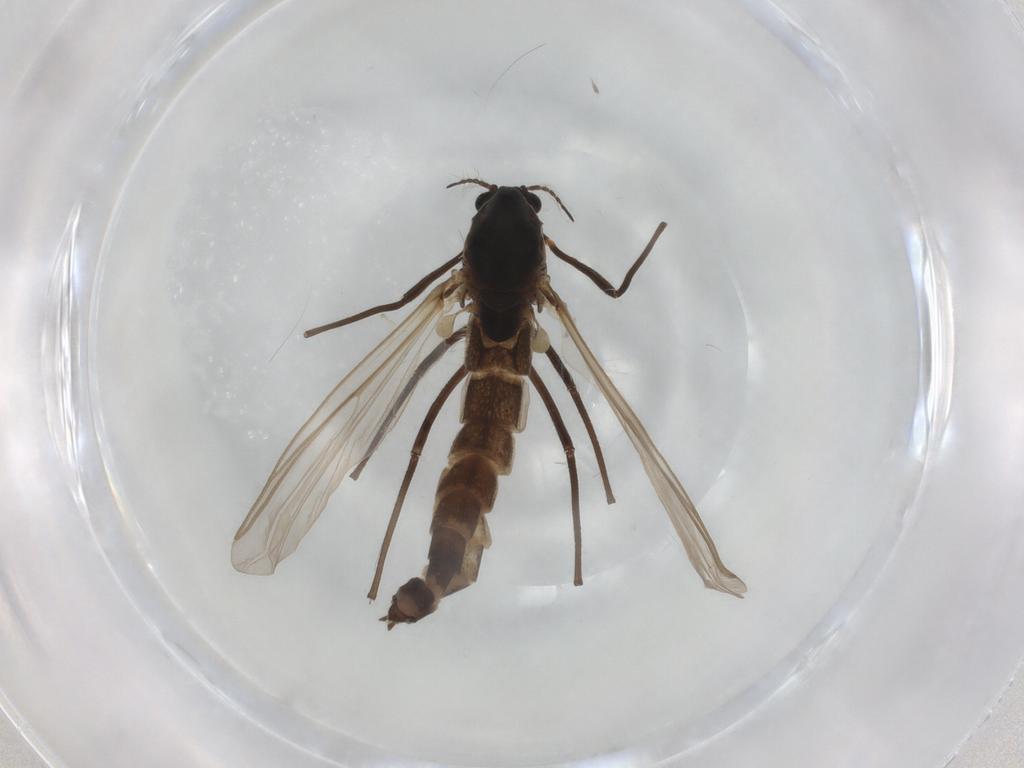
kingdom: Animalia
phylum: Arthropoda
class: Insecta
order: Diptera
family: Chironomidae
